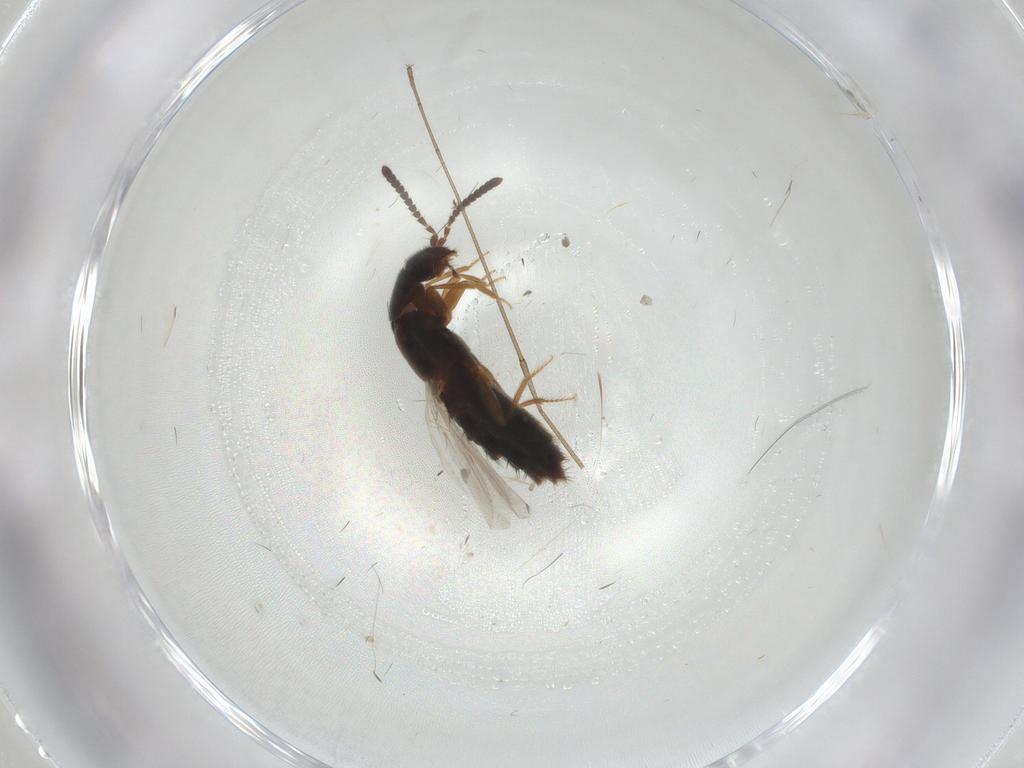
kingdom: Animalia
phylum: Arthropoda
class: Insecta
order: Coleoptera
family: Staphylinidae
